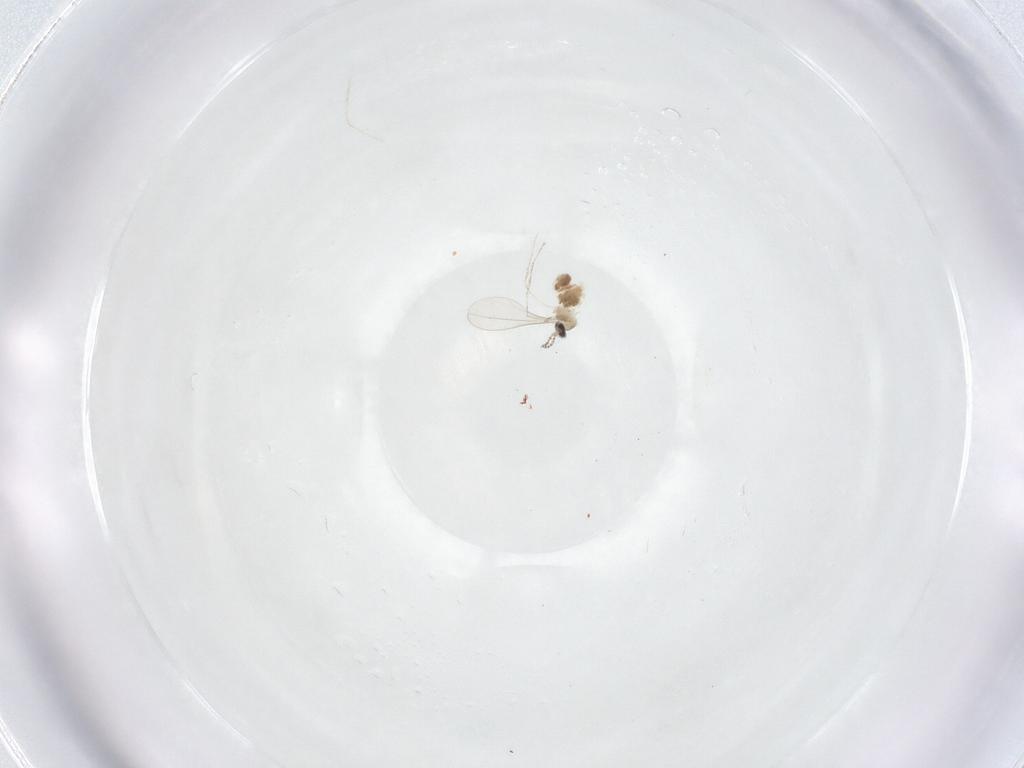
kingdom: Animalia
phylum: Arthropoda
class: Insecta
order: Diptera
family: Cecidomyiidae
